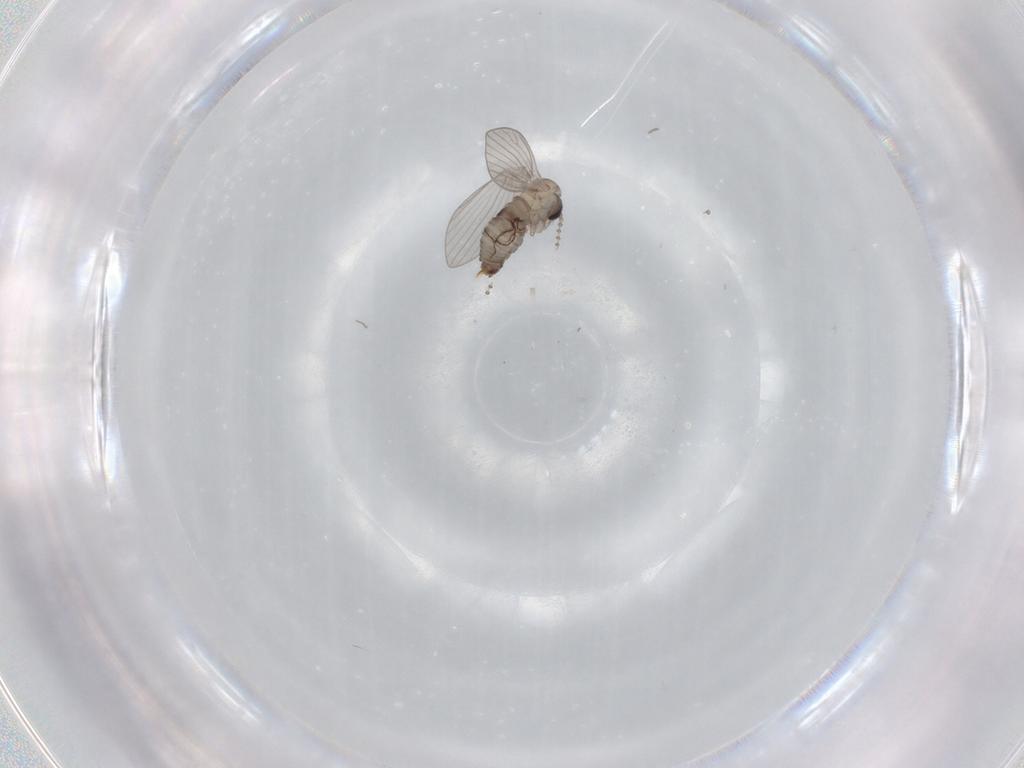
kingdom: Animalia
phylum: Arthropoda
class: Insecta
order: Diptera
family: Psychodidae
